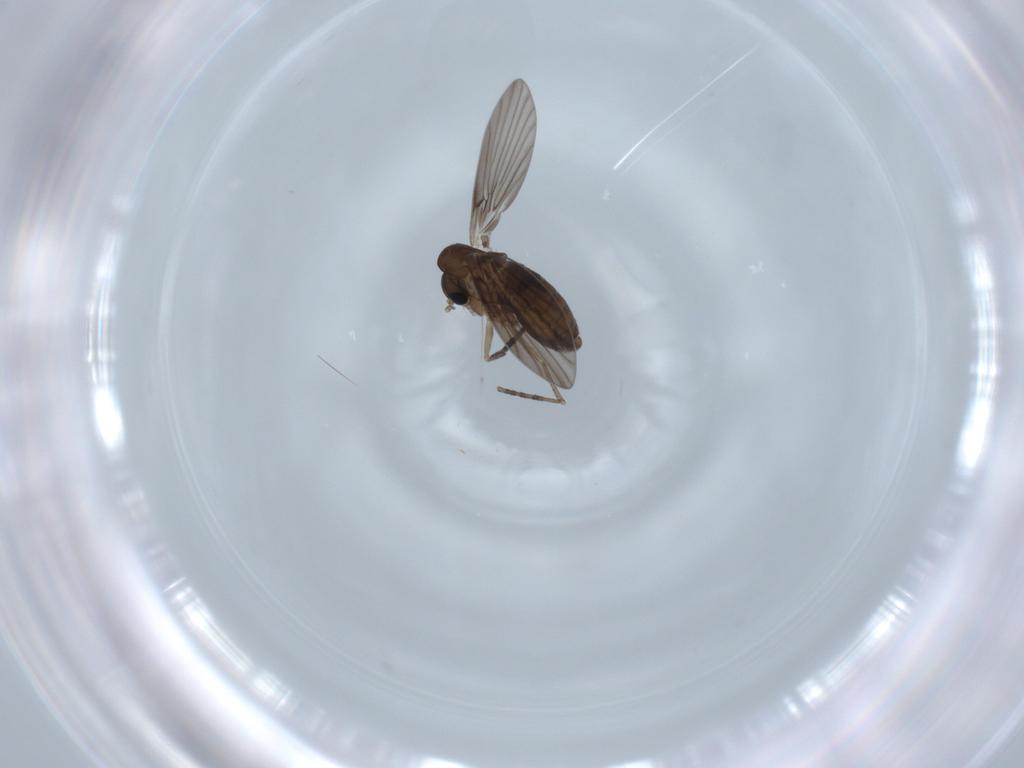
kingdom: Animalia
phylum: Arthropoda
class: Insecta
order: Diptera
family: Psychodidae
